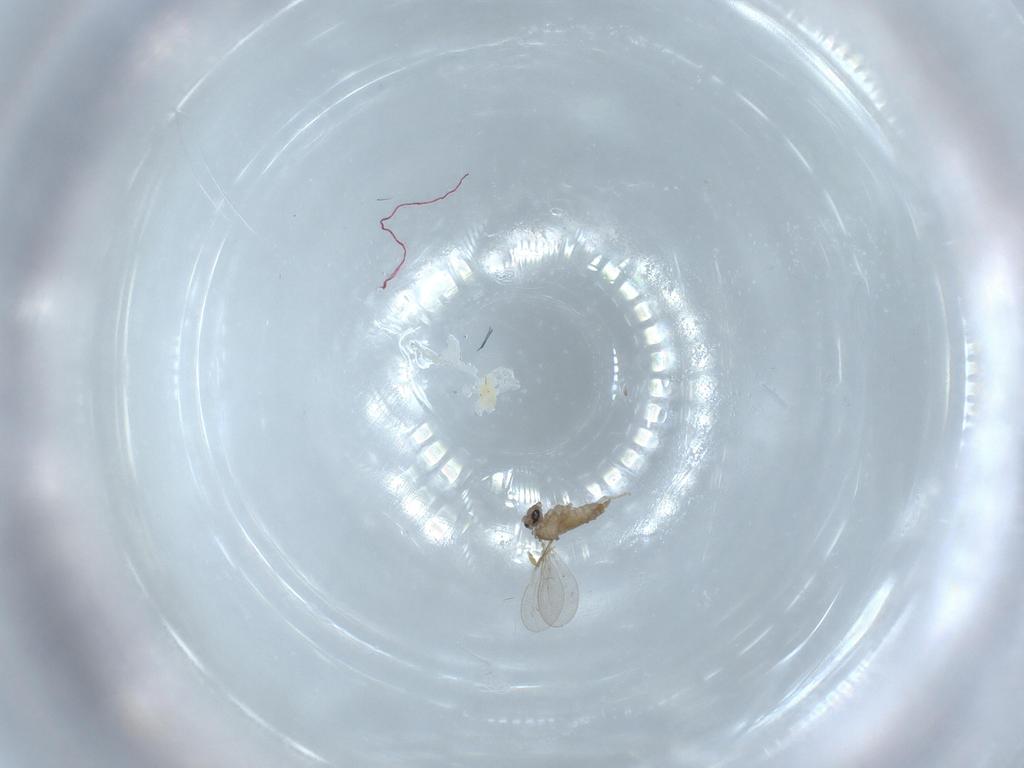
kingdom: Animalia
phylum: Arthropoda
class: Insecta
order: Diptera
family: Cecidomyiidae
